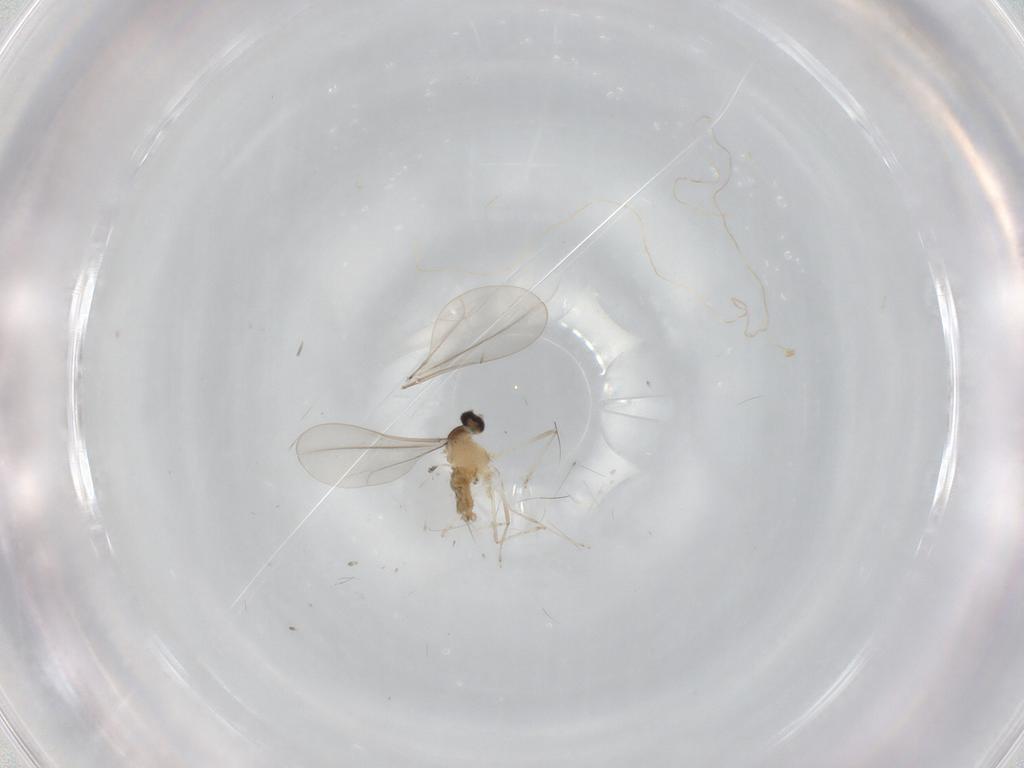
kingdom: Animalia
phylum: Arthropoda
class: Insecta
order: Diptera
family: Cecidomyiidae
